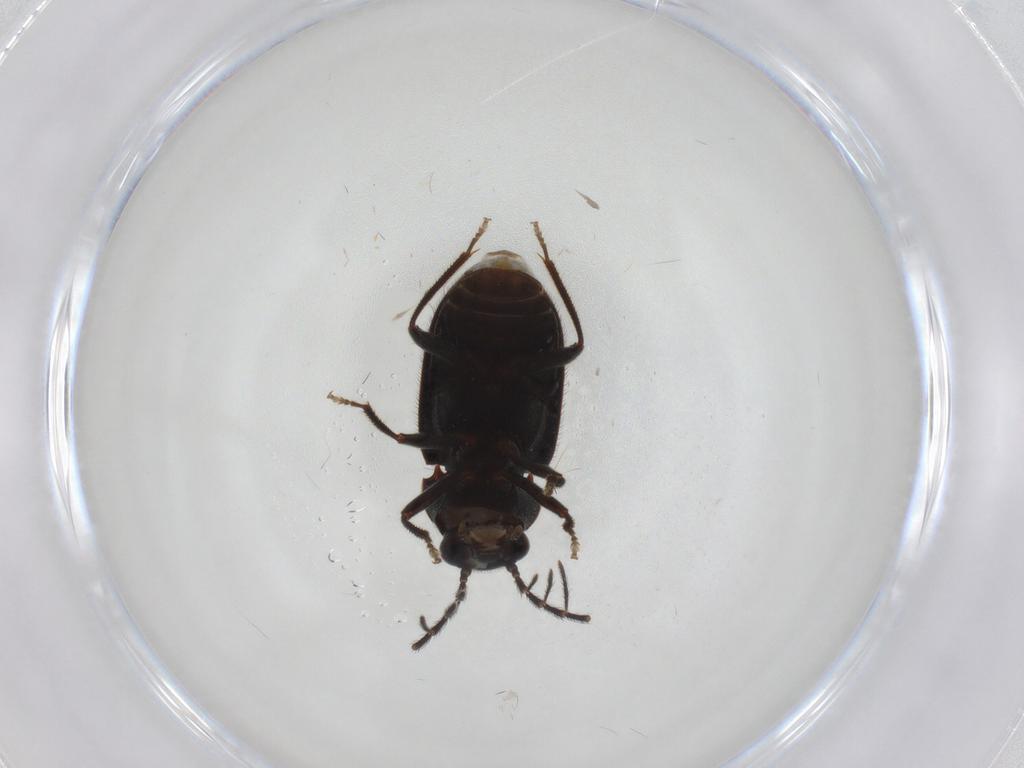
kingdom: Animalia
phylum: Arthropoda
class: Insecta
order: Coleoptera
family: Ptilodactylidae
